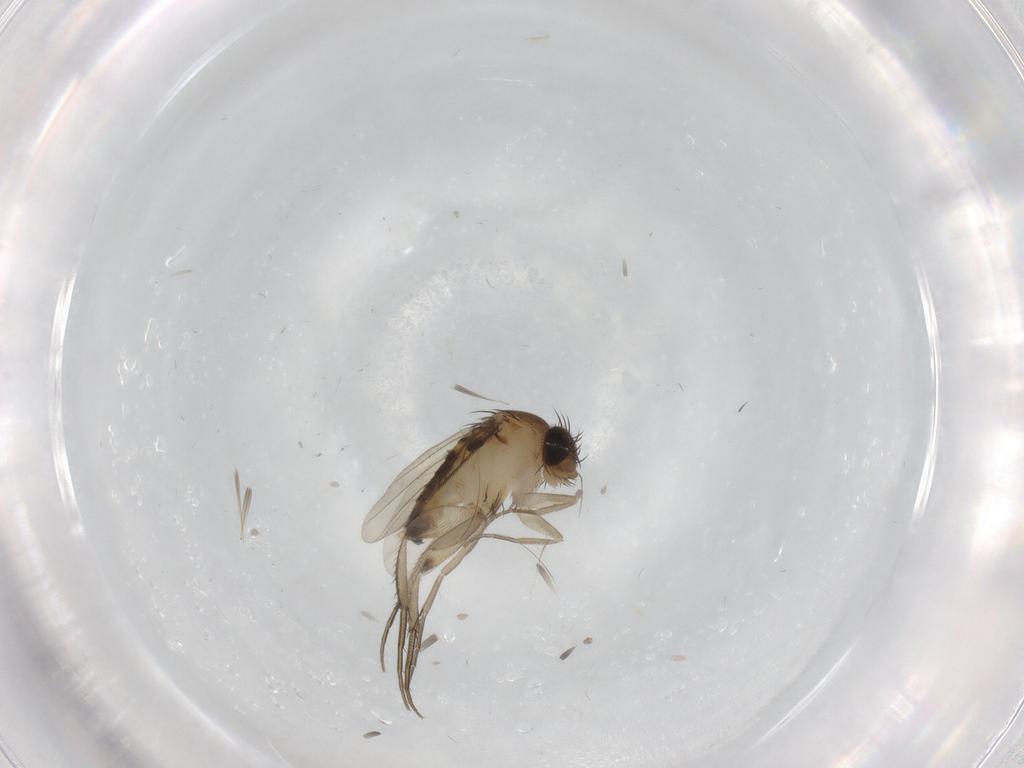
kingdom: Animalia
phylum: Arthropoda
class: Insecta
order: Diptera
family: Phoridae
